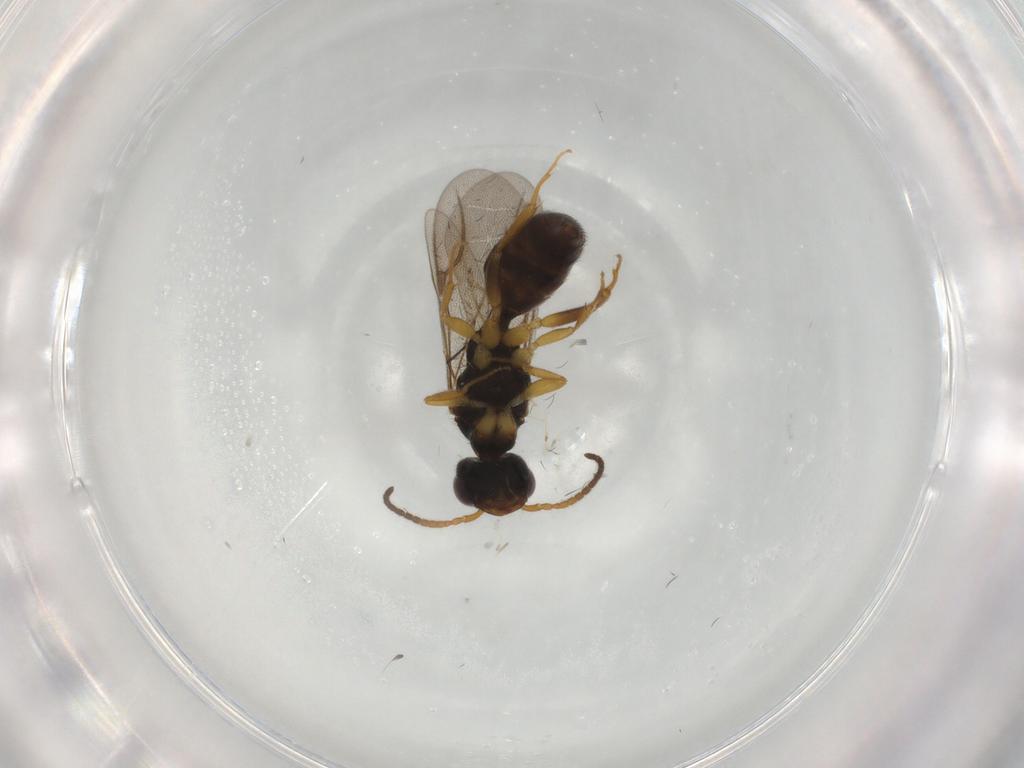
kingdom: Animalia
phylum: Arthropoda
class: Insecta
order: Hymenoptera
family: Bethylidae
